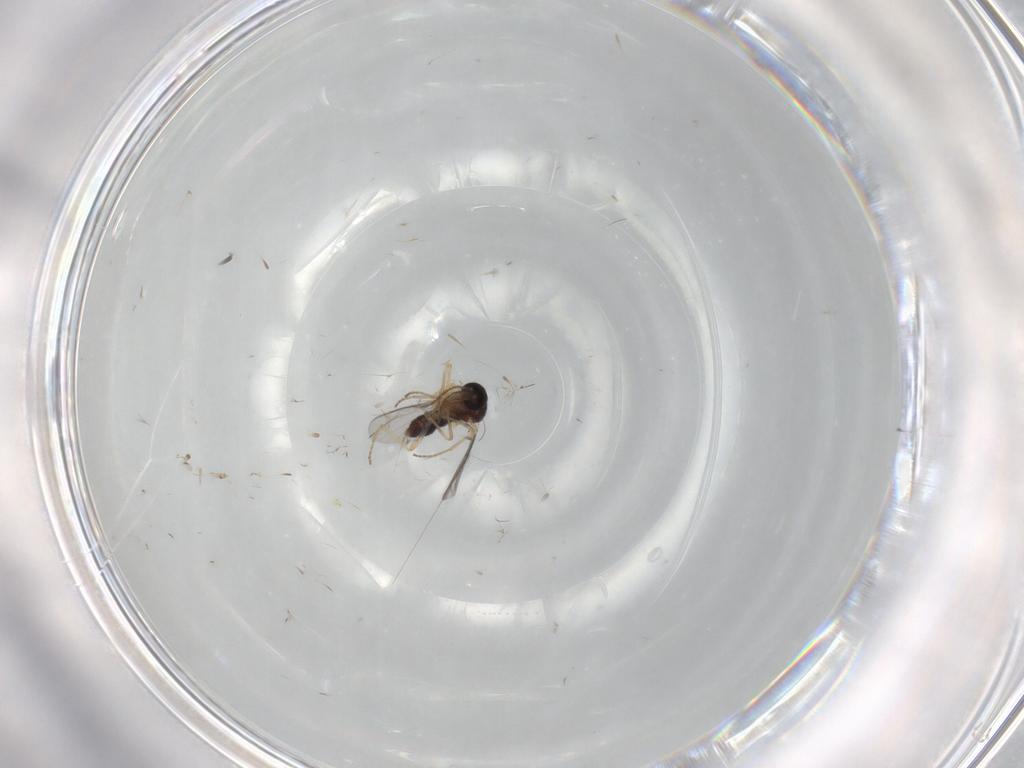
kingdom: Animalia
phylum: Arthropoda
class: Insecta
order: Diptera
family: Ceratopogonidae
